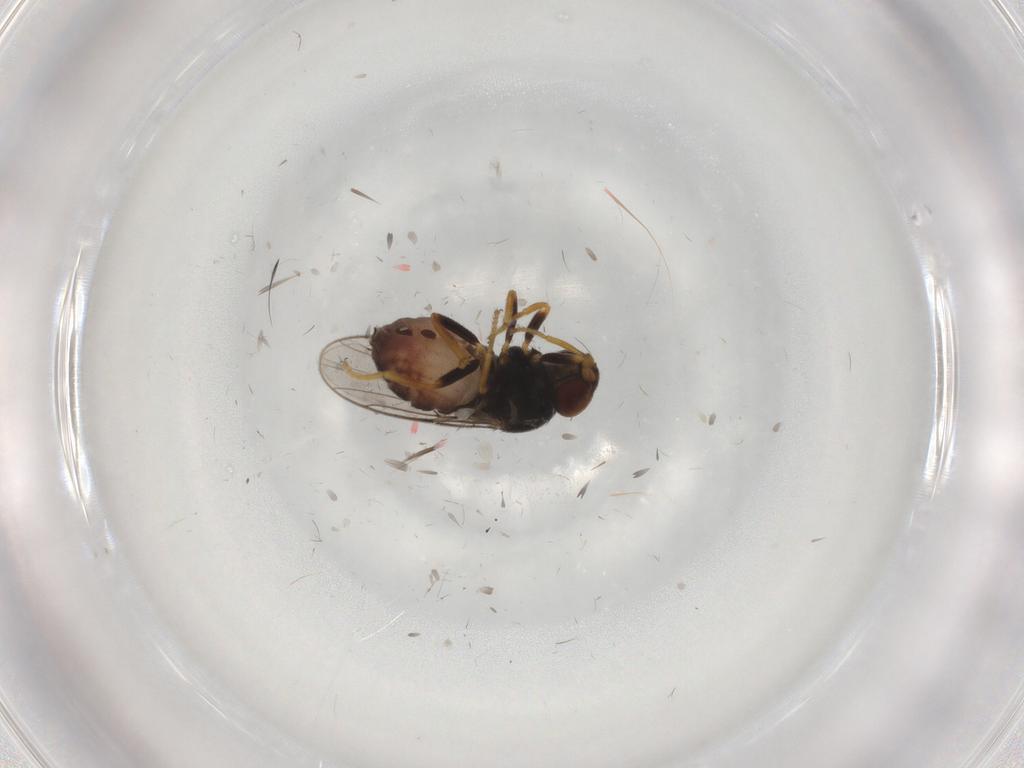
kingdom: Animalia
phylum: Arthropoda
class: Insecta
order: Diptera
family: Chloropidae
